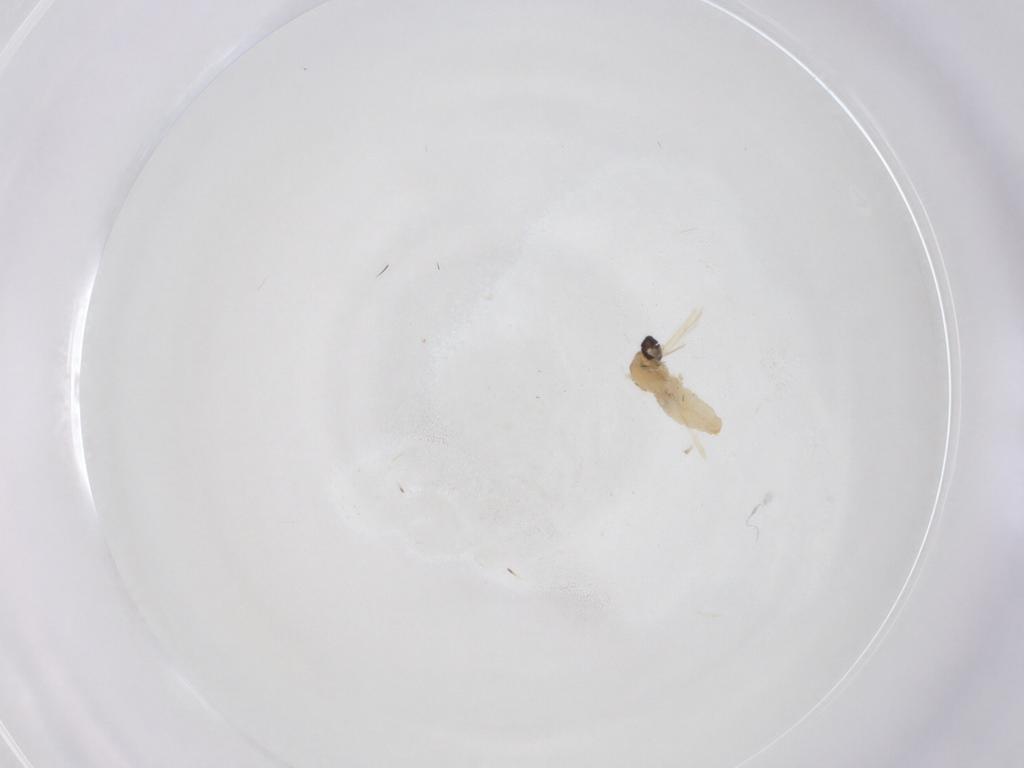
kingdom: Animalia
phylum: Arthropoda
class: Insecta
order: Diptera
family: Cecidomyiidae
